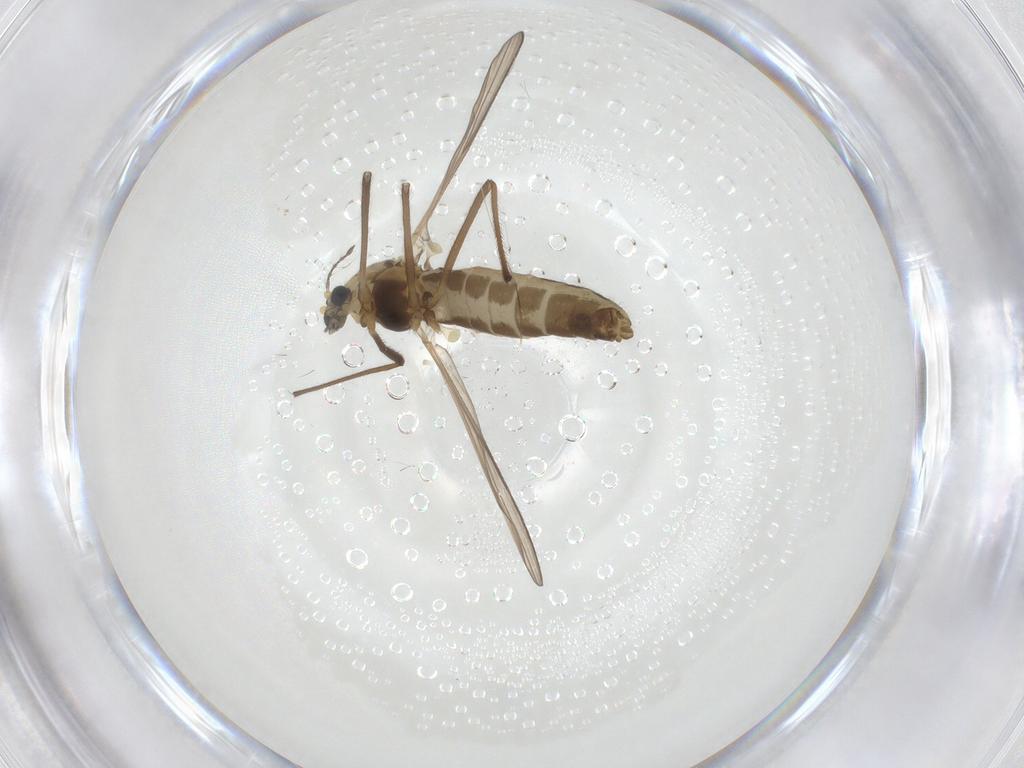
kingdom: Animalia
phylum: Arthropoda
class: Insecta
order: Diptera
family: Chironomidae
